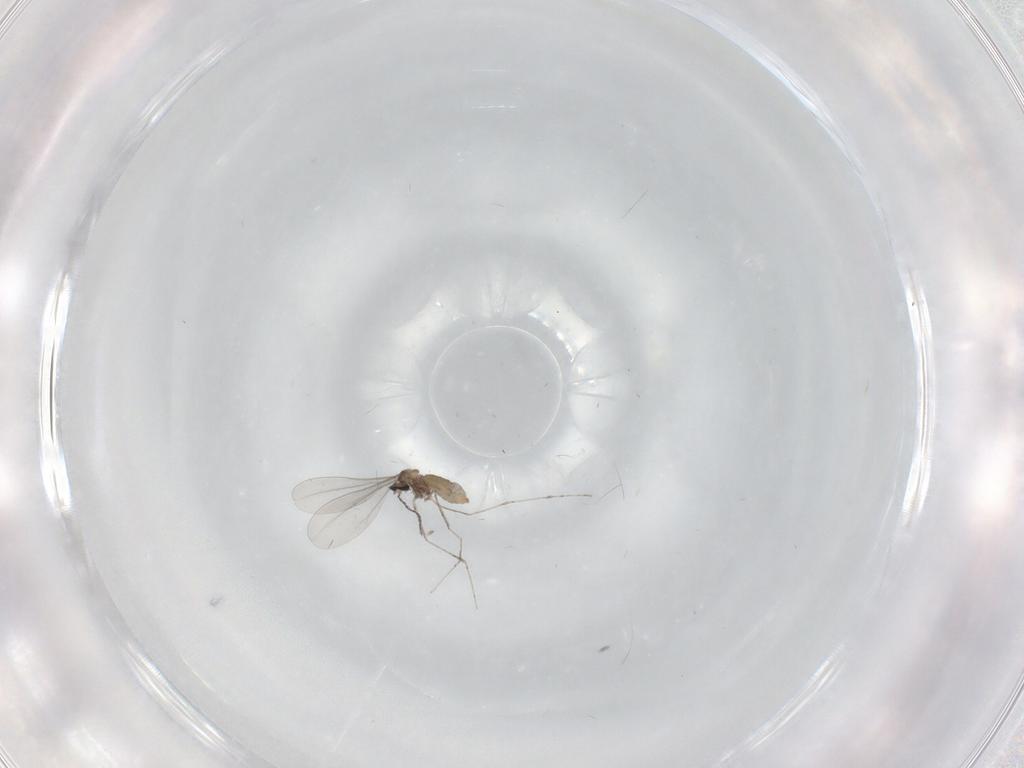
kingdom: Animalia
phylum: Arthropoda
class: Insecta
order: Diptera
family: Cecidomyiidae
